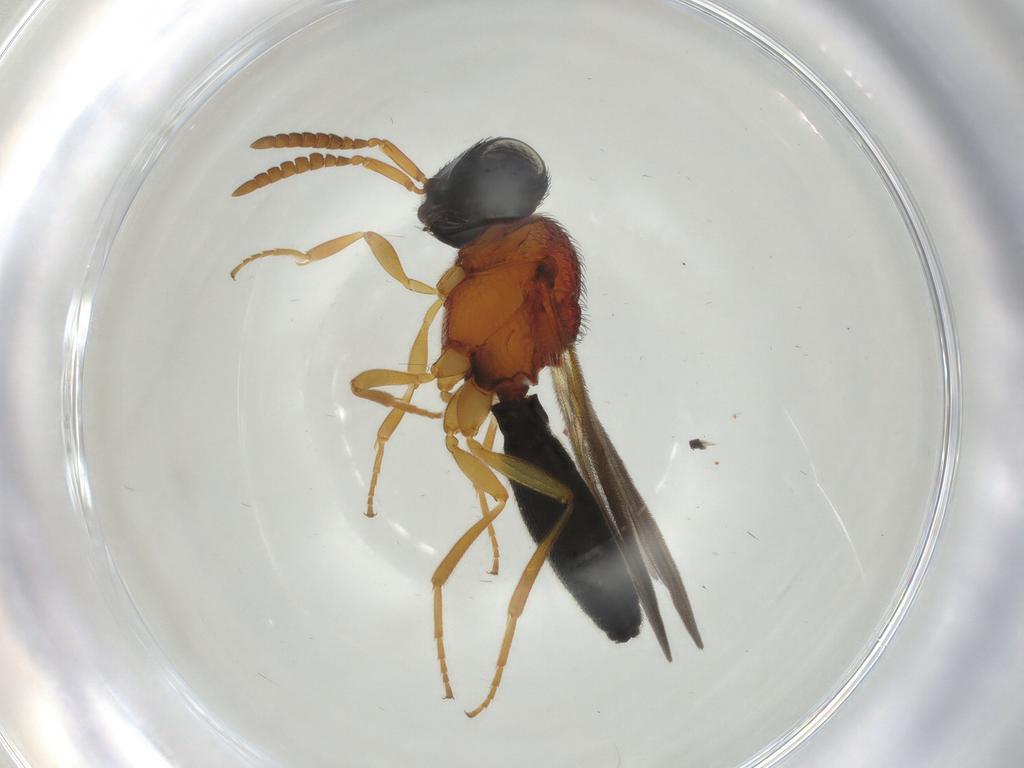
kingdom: Animalia
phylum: Arthropoda
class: Insecta
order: Hymenoptera
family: Scelionidae
